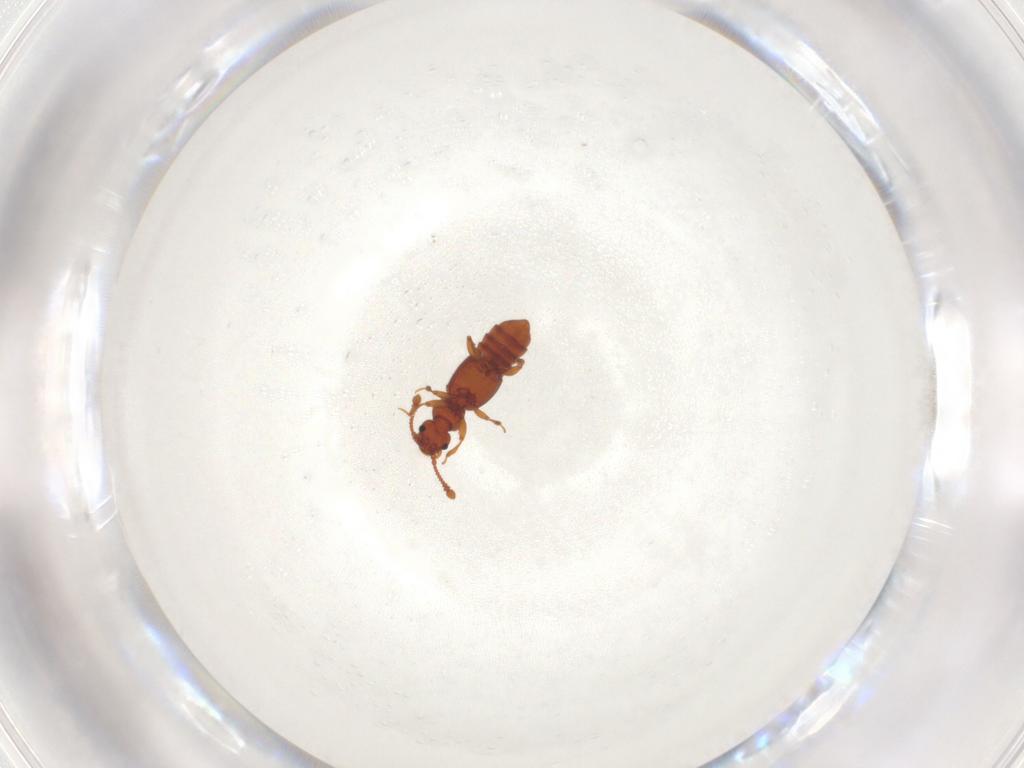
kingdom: Animalia
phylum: Arthropoda
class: Insecta
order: Coleoptera
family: Staphylinidae
